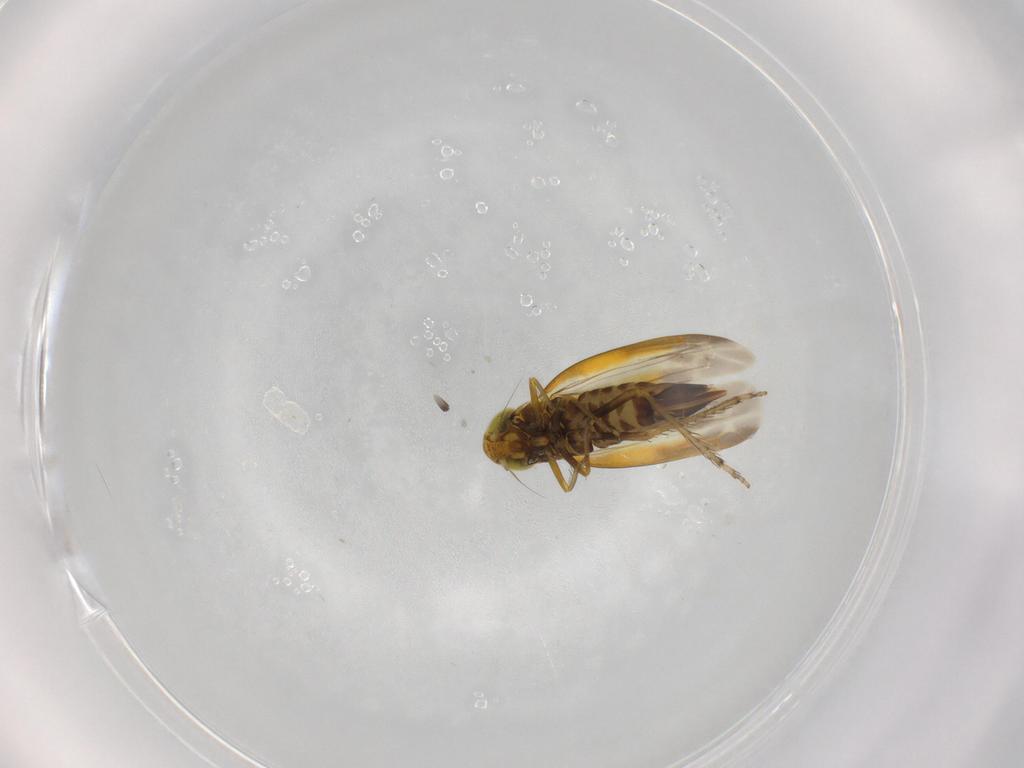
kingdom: Animalia
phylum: Arthropoda
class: Insecta
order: Hemiptera
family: Cicadellidae
